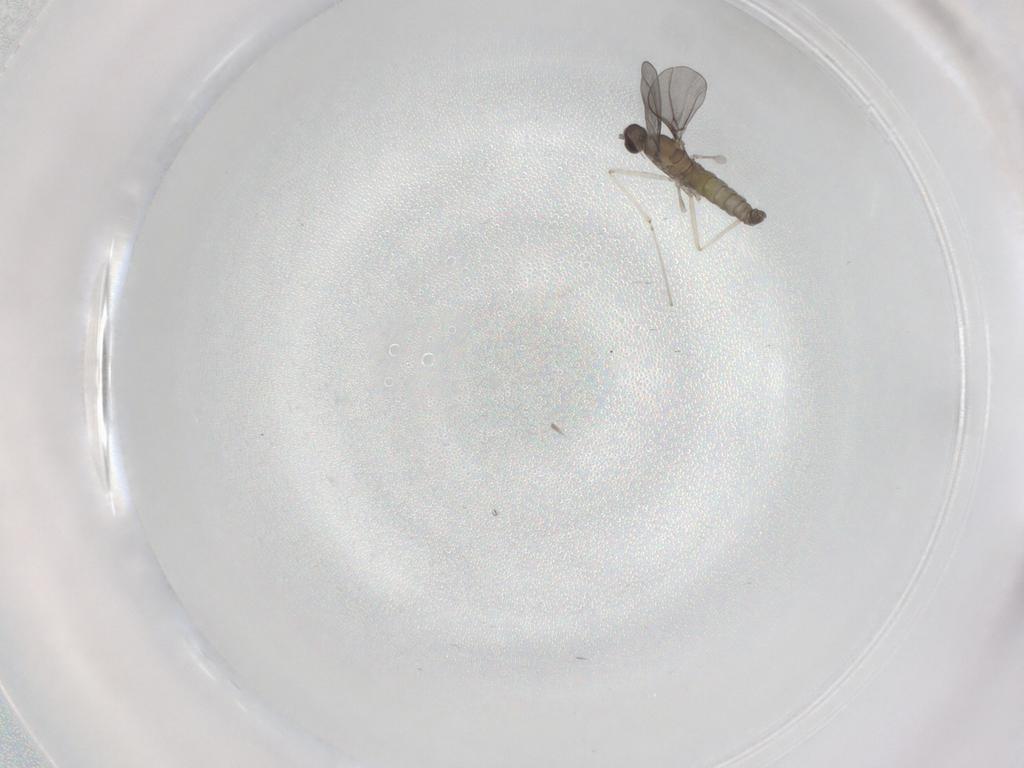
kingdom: Animalia
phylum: Arthropoda
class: Insecta
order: Diptera
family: Cecidomyiidae
